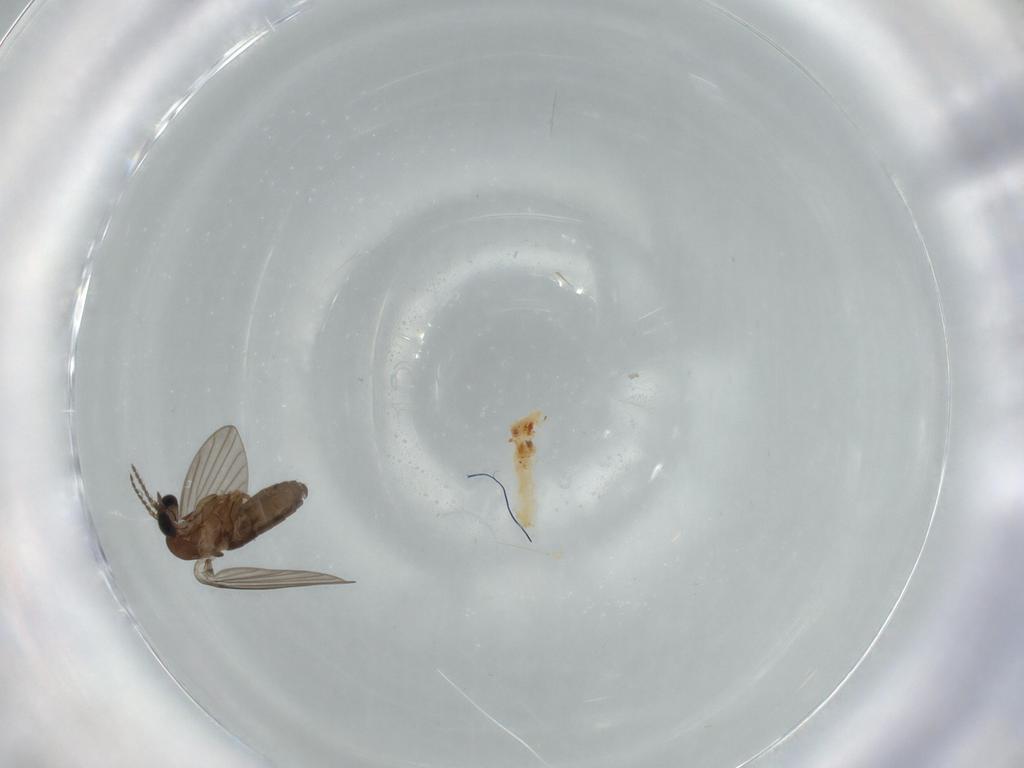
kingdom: Animalia
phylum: Arthropoda
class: Insecta
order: Diptera
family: Psychodidae
